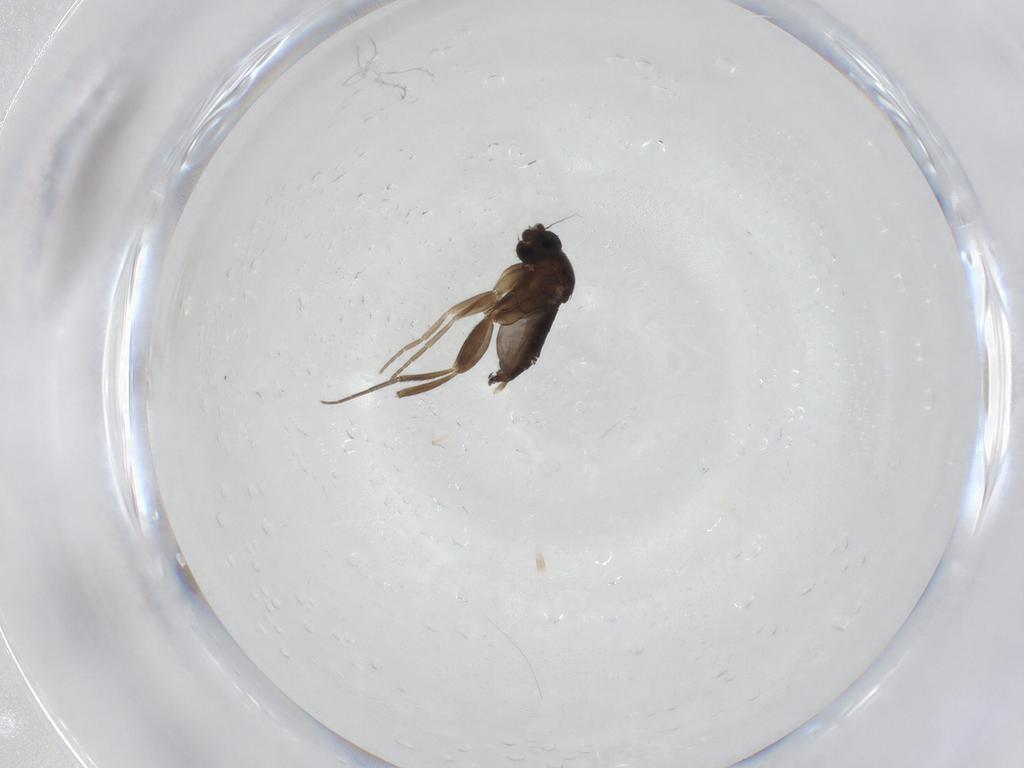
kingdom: Animalia
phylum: Arthropoda
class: Insecta
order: Diptera
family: Phoridae
